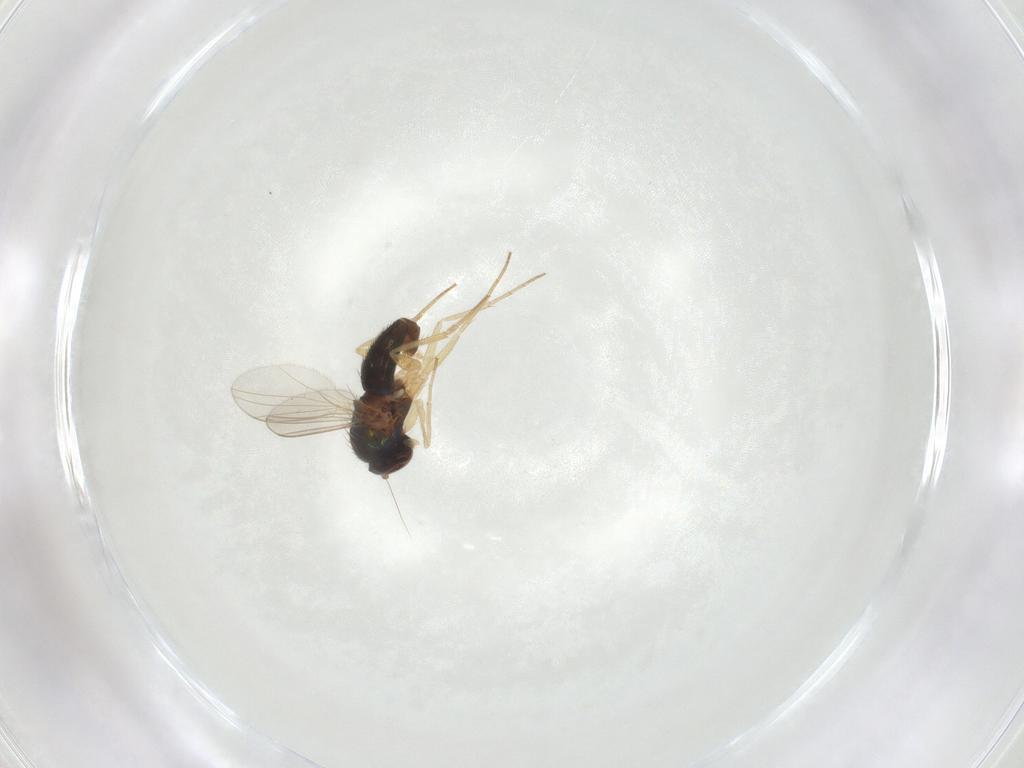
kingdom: Animalia
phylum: Arthropoda
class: Insecta
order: Diptera
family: Dolichopodidae
